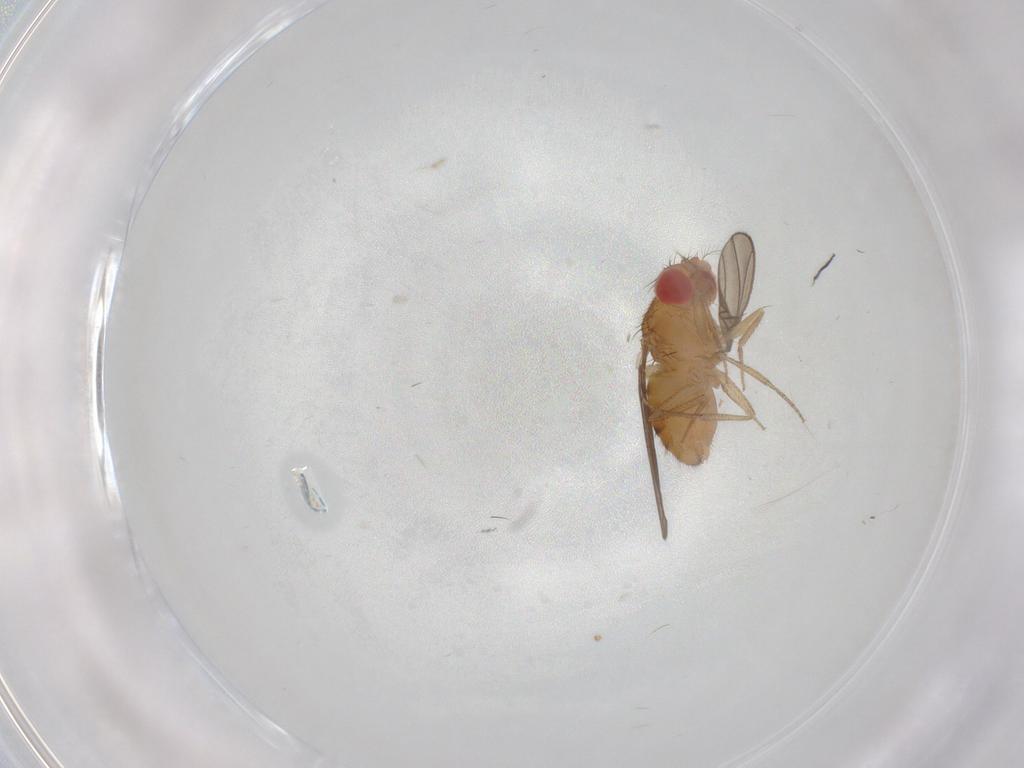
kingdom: Animalia
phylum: Arthropoda
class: Insecta
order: Diptera
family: Drosophilidae
